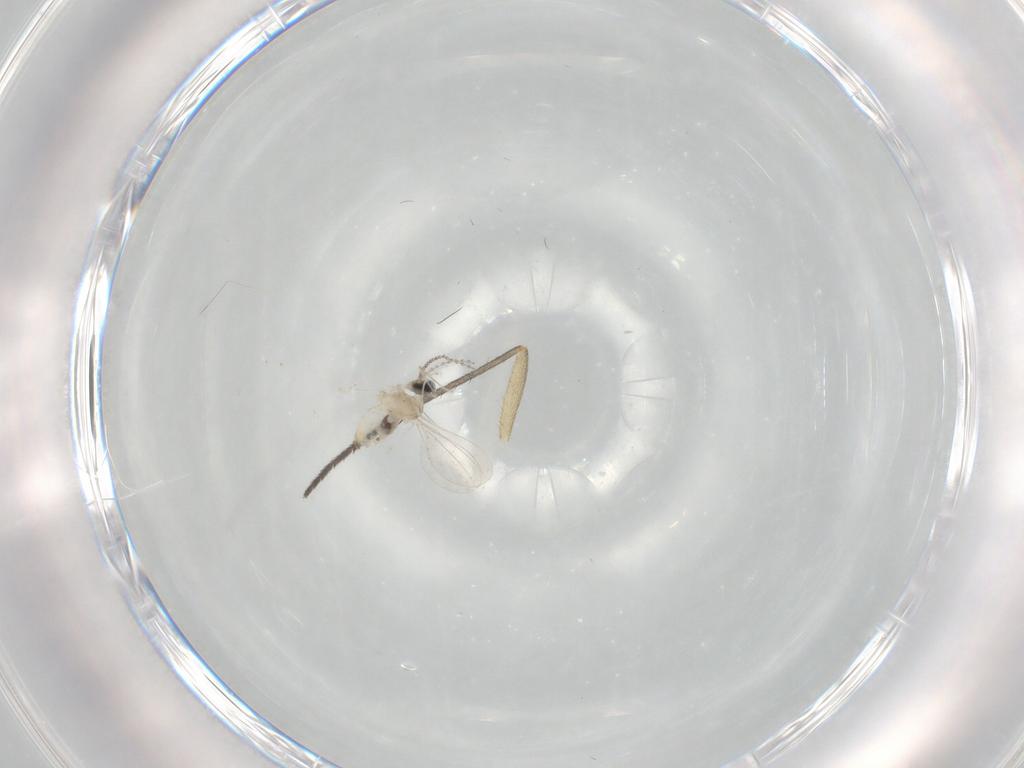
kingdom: Animalia
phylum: Arthropoda
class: Insecta
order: Diptera
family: Sciaridae
